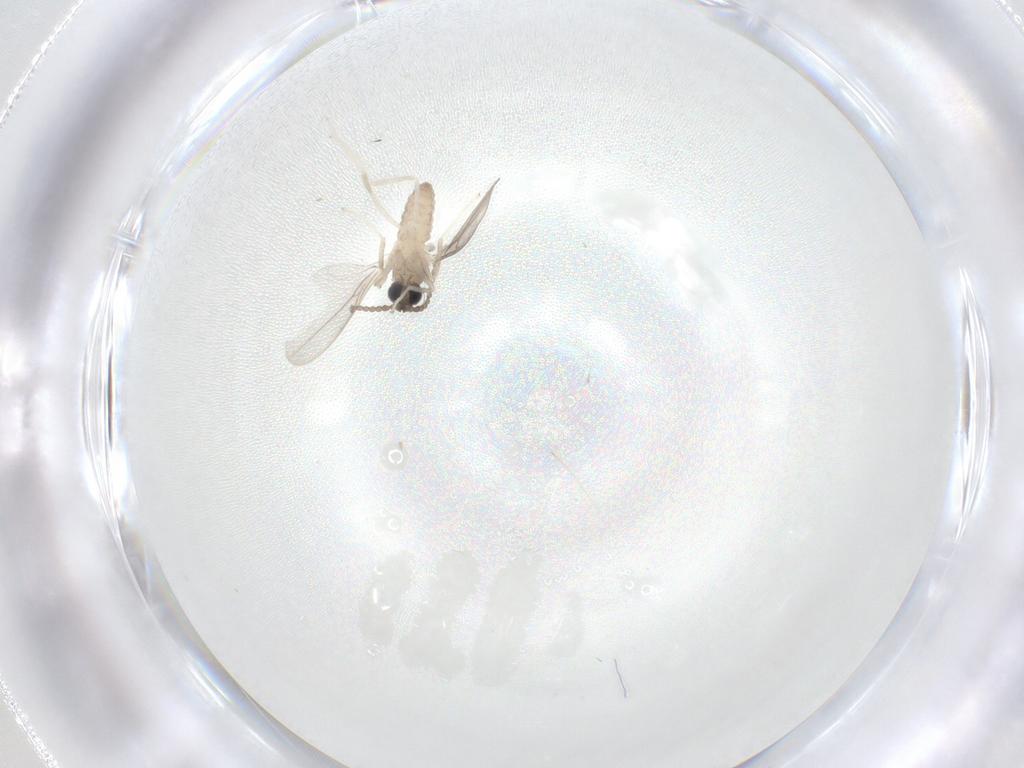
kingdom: Animalia
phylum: Arthropoda
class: Insecta
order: Diptera
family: Cecidomyiidae
